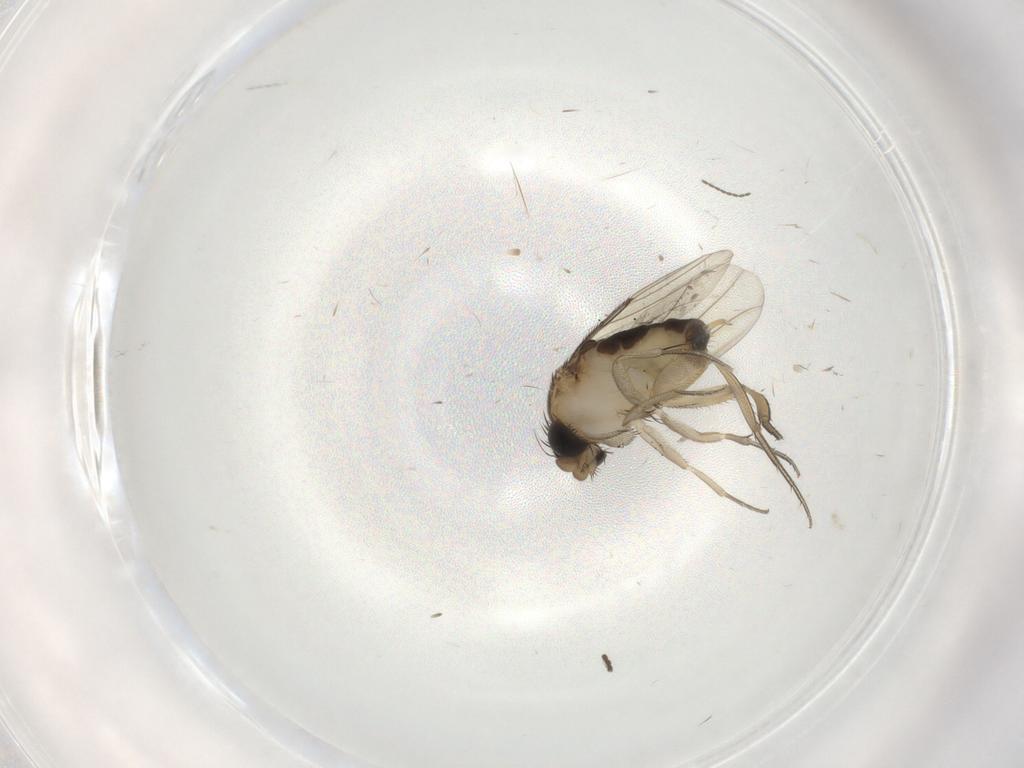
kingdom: Animalia
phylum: Arthropoda
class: Insecta
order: Diptera
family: Phoridae
